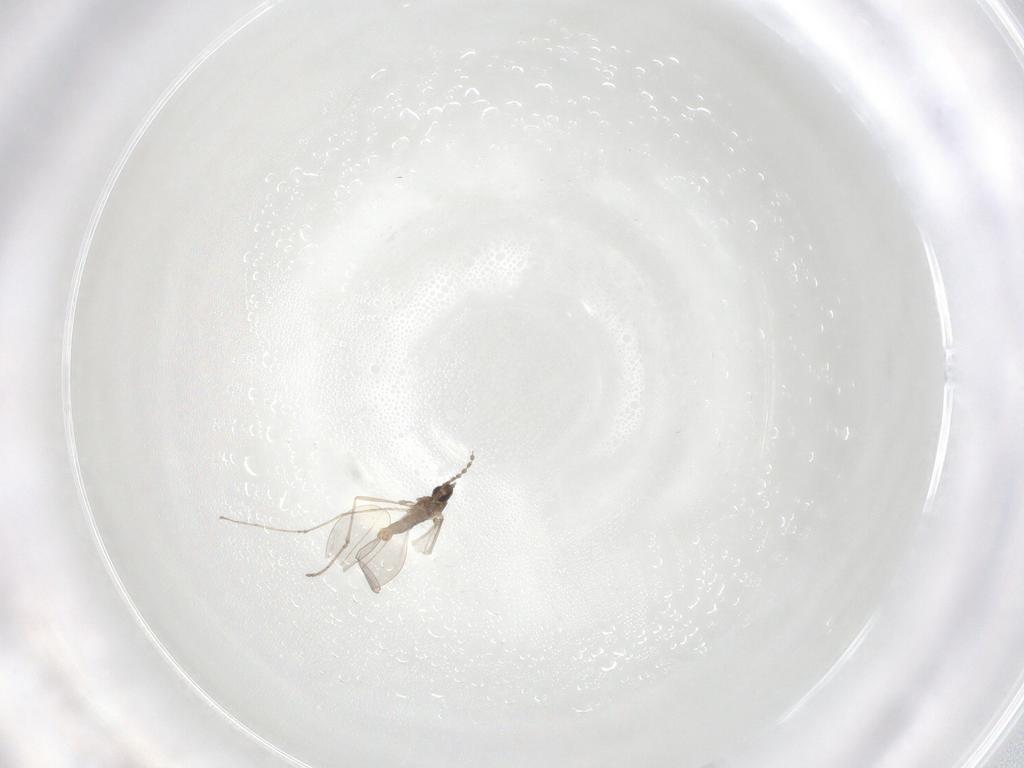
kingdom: Animalia
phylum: Arthropoda
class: Insecta
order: Diptera
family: Cecidomyiidae
